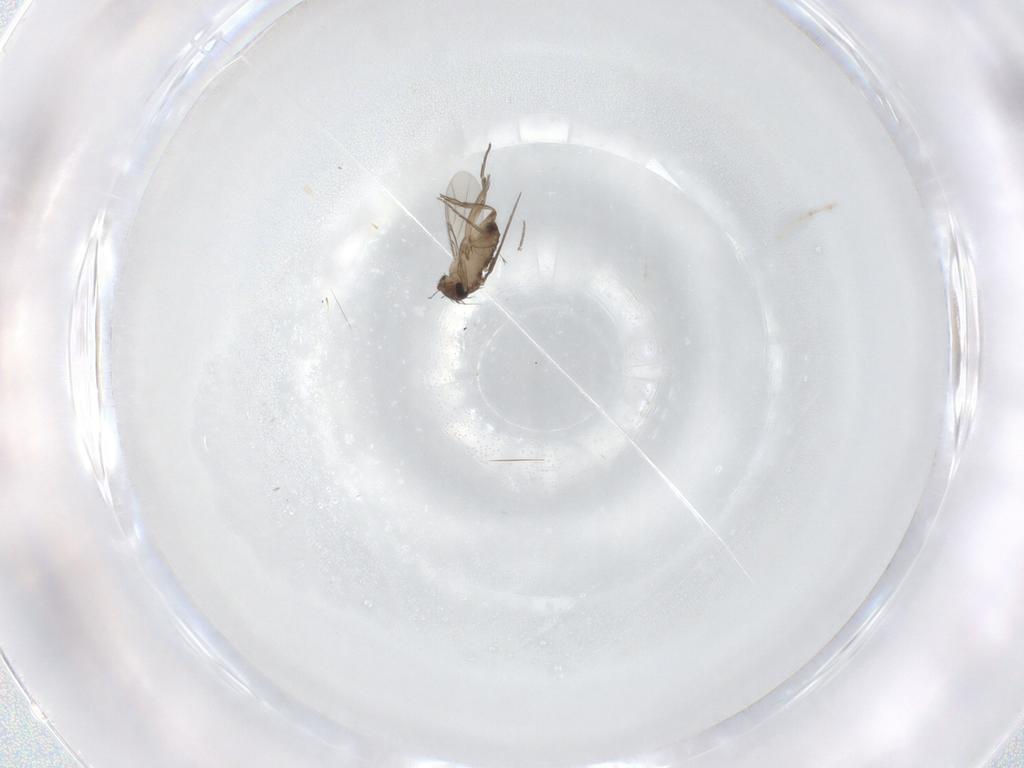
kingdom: Animalia
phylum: Arthropoda
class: Insecta
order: Diptera
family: Phoridae
